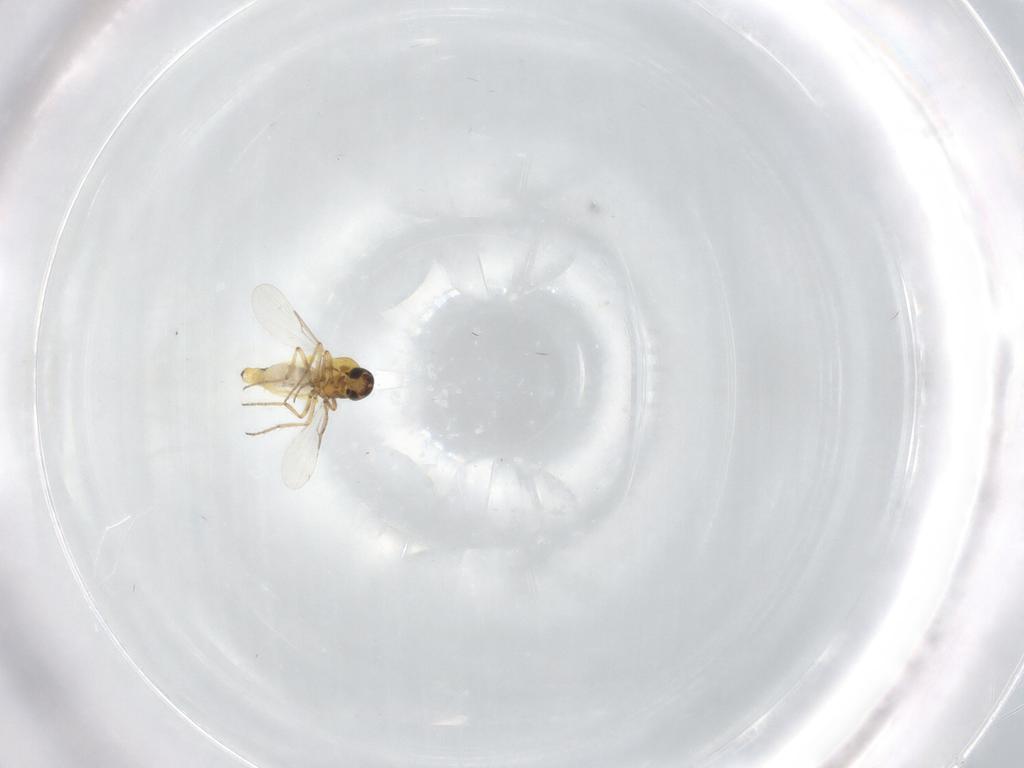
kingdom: Animalia
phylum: Arthropoda
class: Insecta
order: Diptera
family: Ceratopogonidae
